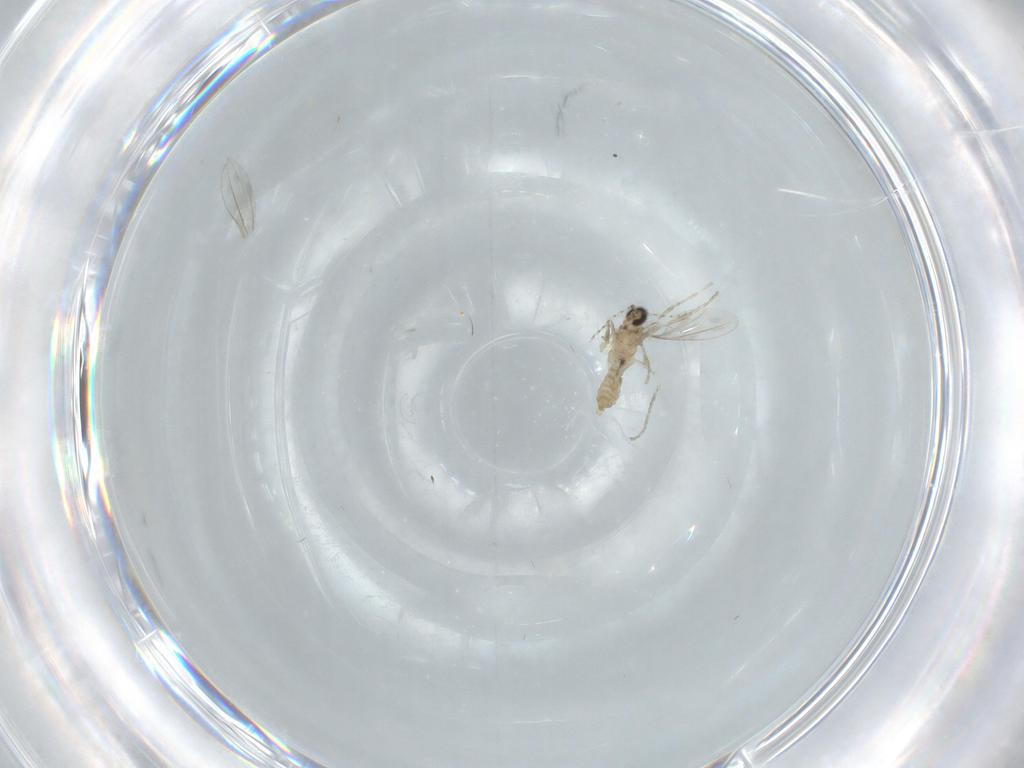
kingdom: Animalia
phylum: Arthropoda
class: Insecta
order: Diptera
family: Cecidomyiidae
